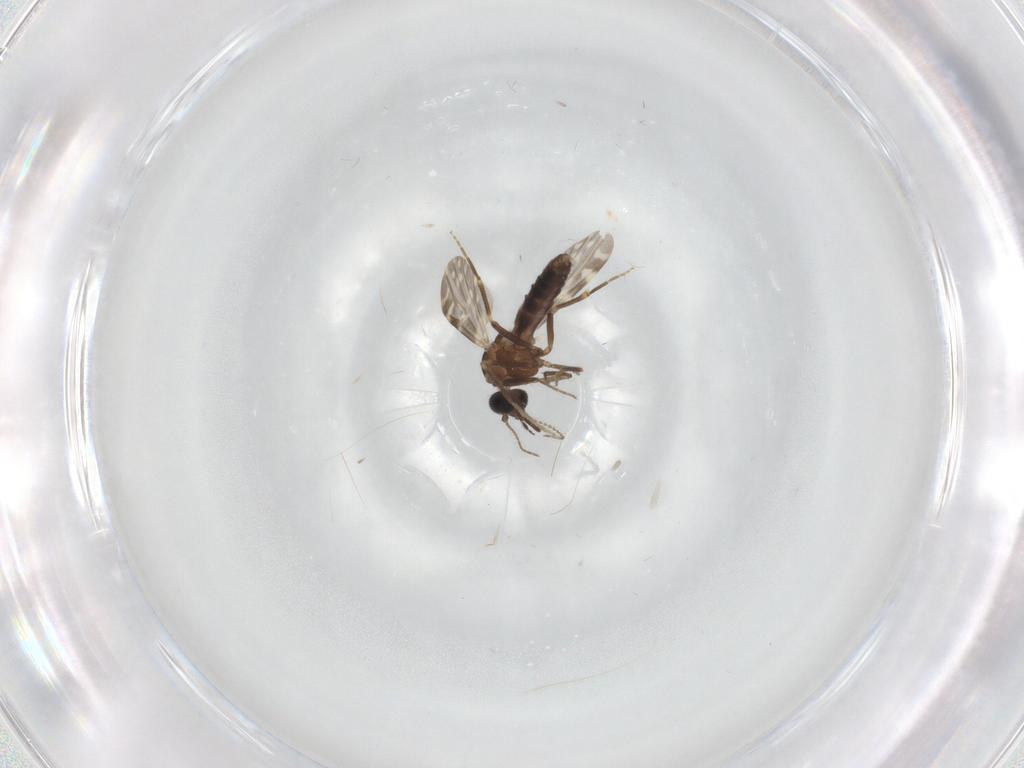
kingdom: Animalia
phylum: Arthropoda
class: Insecta
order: Diptera
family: Ceratopogonidae
